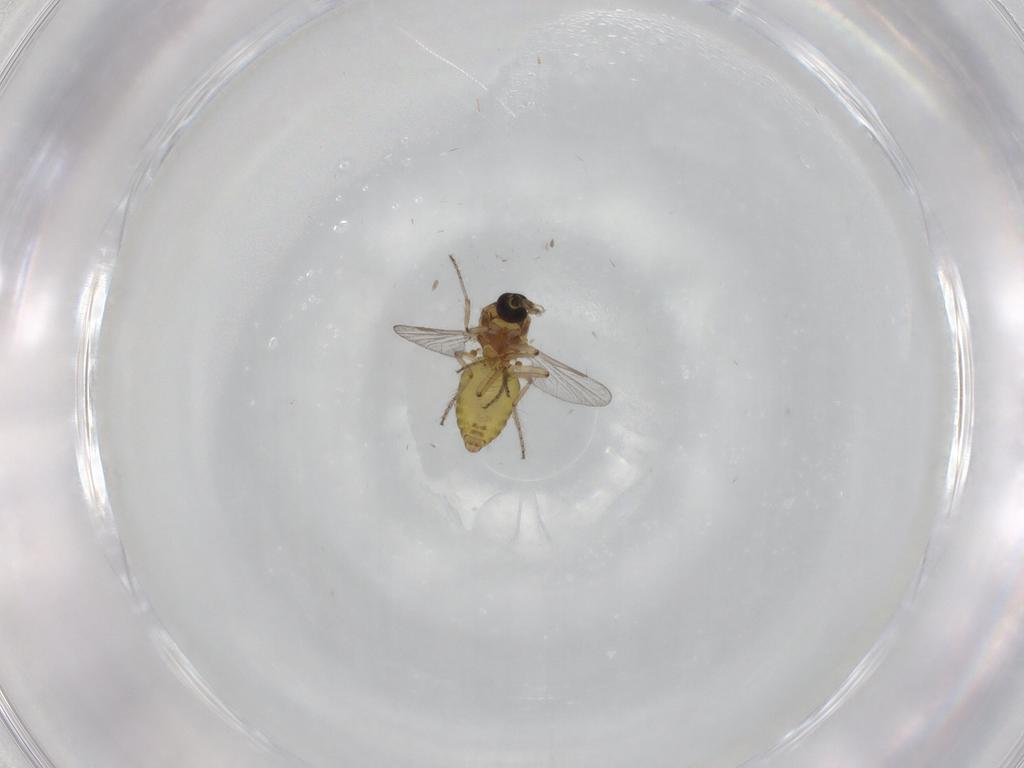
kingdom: Animalia
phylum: Arthropoda
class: Insecta
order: Diptera
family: Ceratopogonidae
